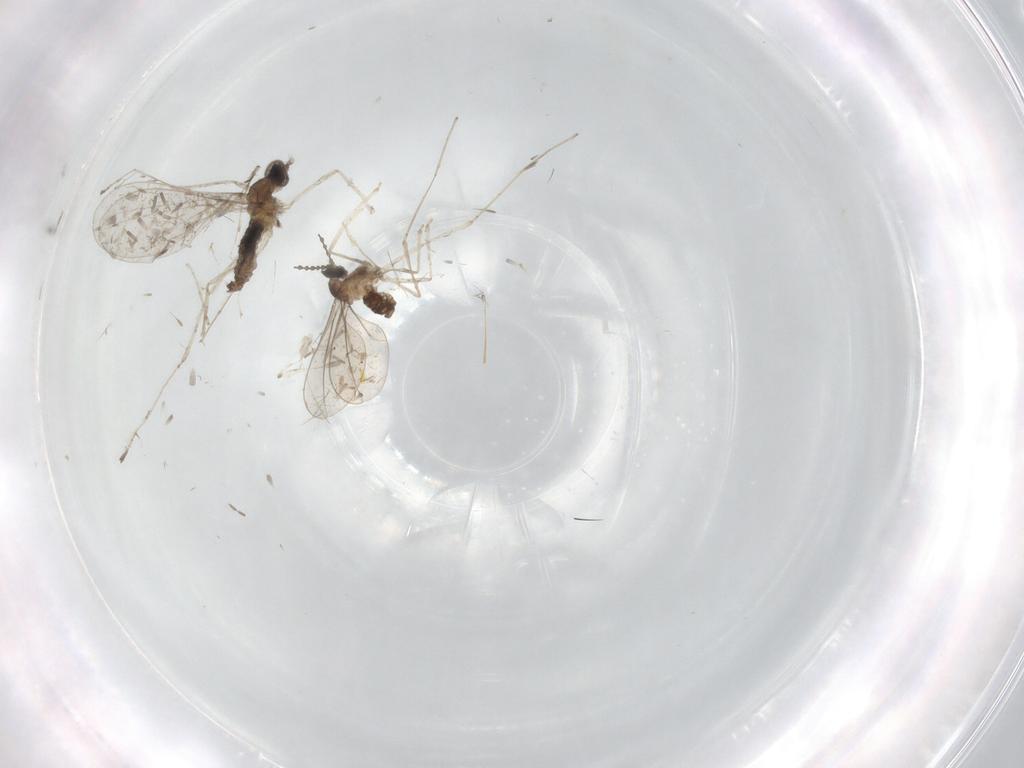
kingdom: Animalia
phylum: Arthropoda
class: Insecta
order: Diptera
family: Cecidomyiidae
